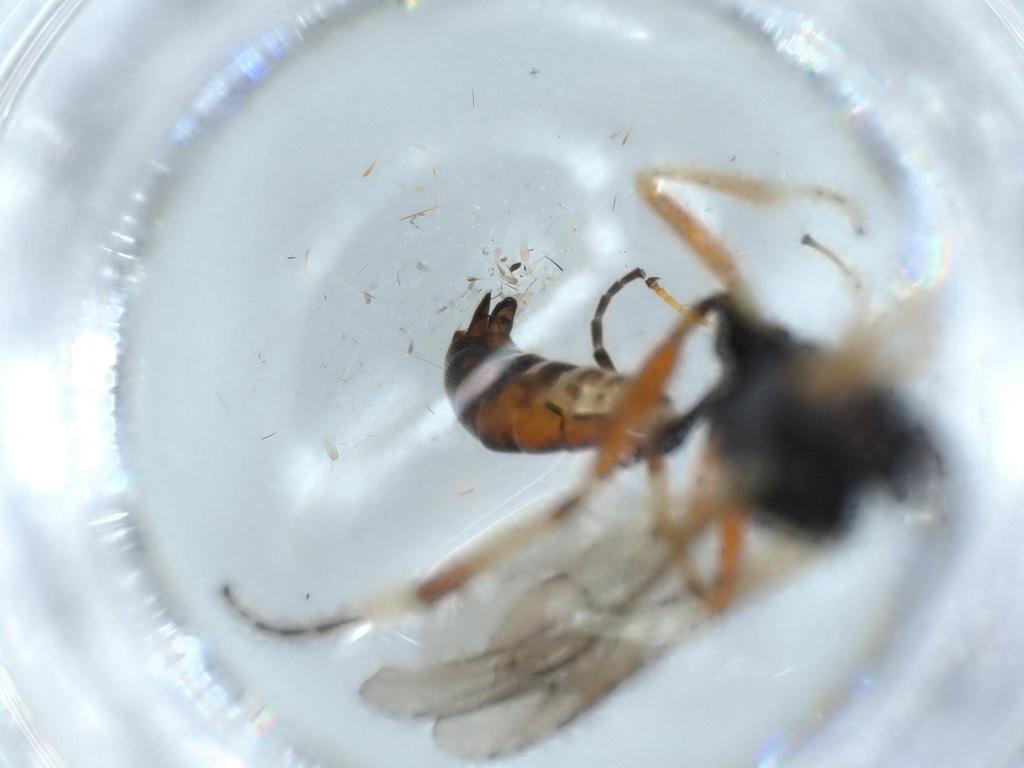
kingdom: Animalia
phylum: Arthropoda
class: Insecta
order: Hymenoptera
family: Ichneumonidae
